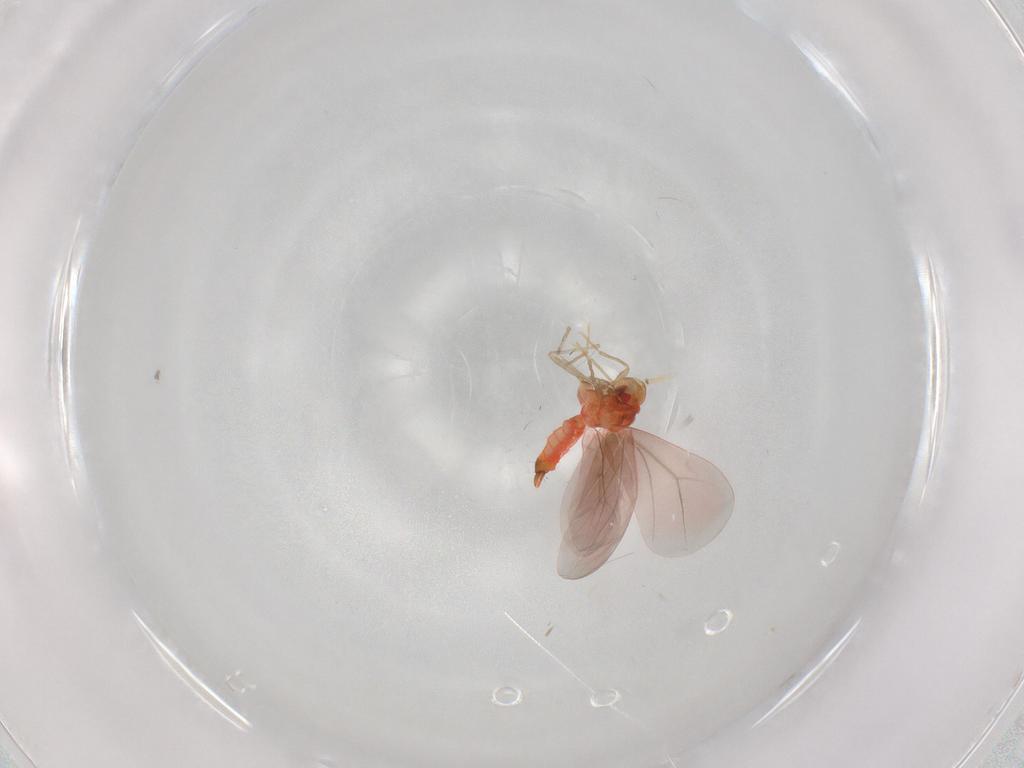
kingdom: Animalia
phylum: Arthropoda
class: Insecta
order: Hemiptera
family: Aleyrodidae
